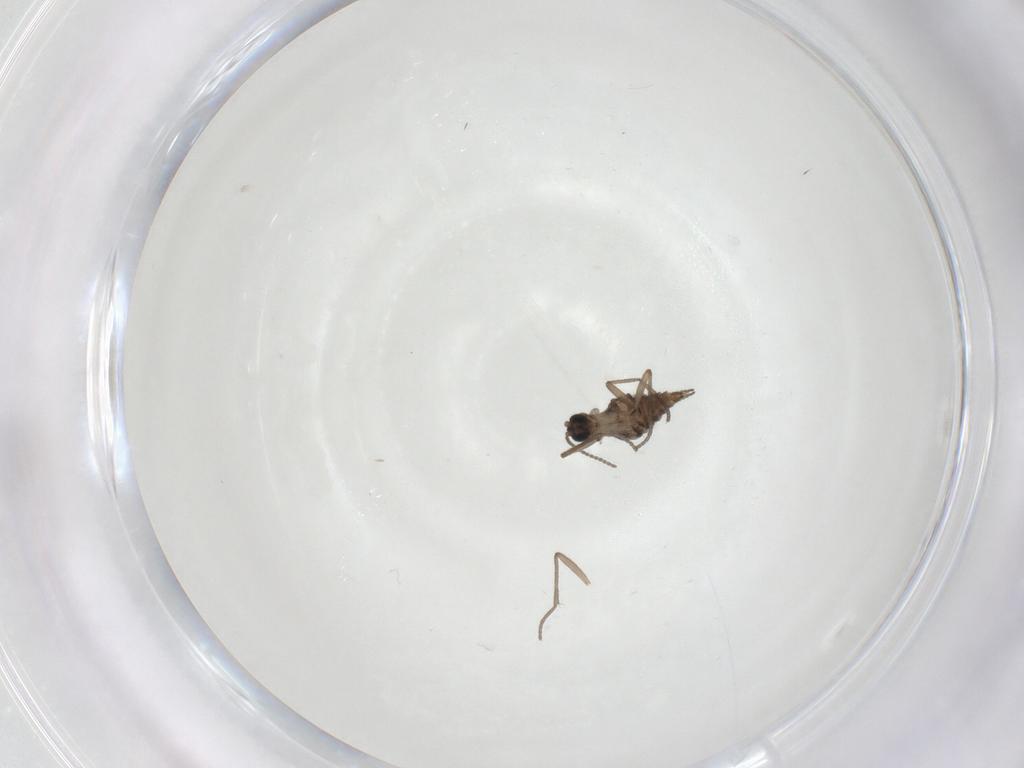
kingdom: Animalia
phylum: Arthropoda
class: Insecta
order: Diptera
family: Sciaridae
